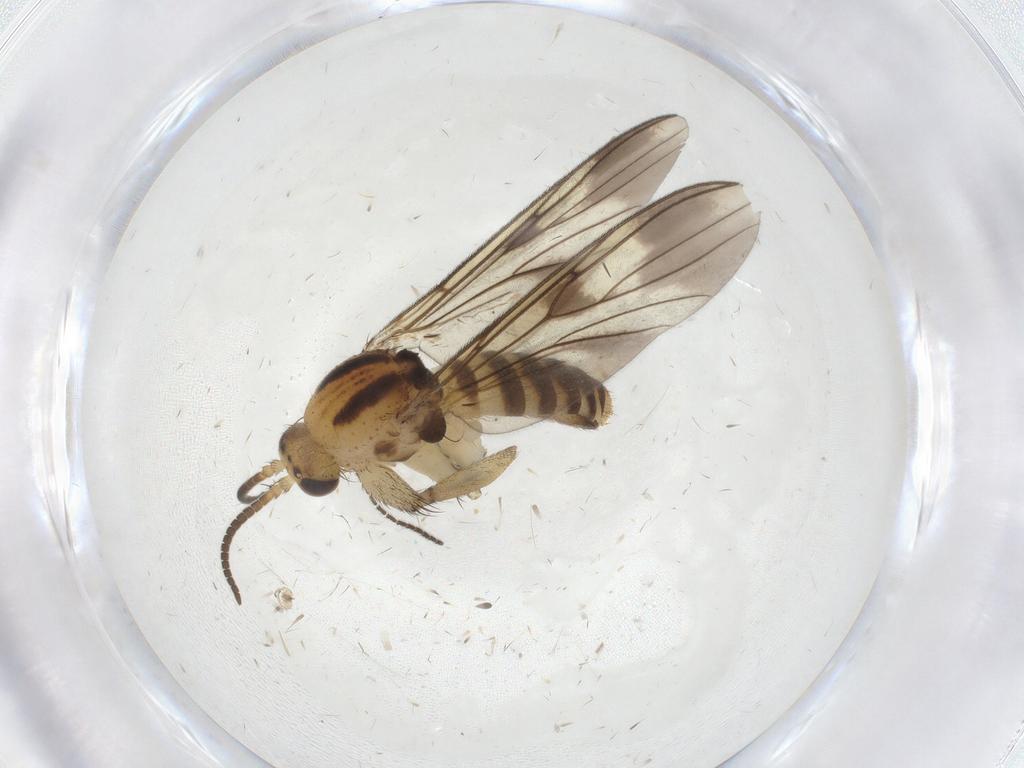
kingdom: Animalia
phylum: Arthropoda
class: Insecta
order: Diptera
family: Mycetophilidae
